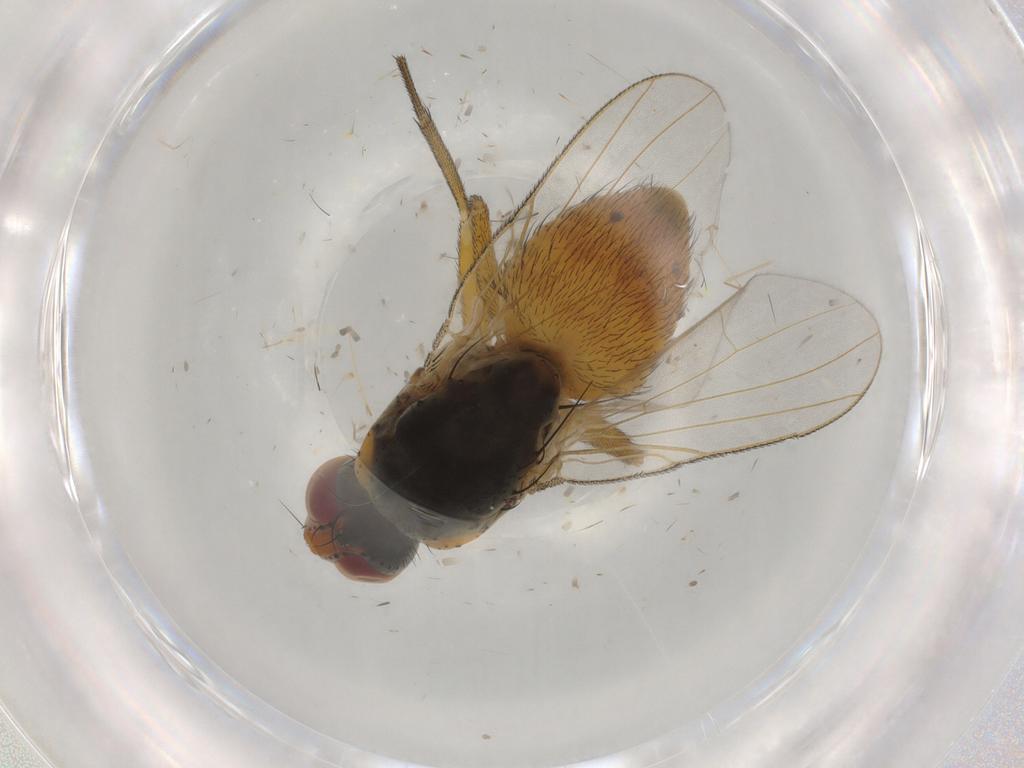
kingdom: Animalia
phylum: Arthropoda
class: Insecta
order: Diptera
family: Muscidae
